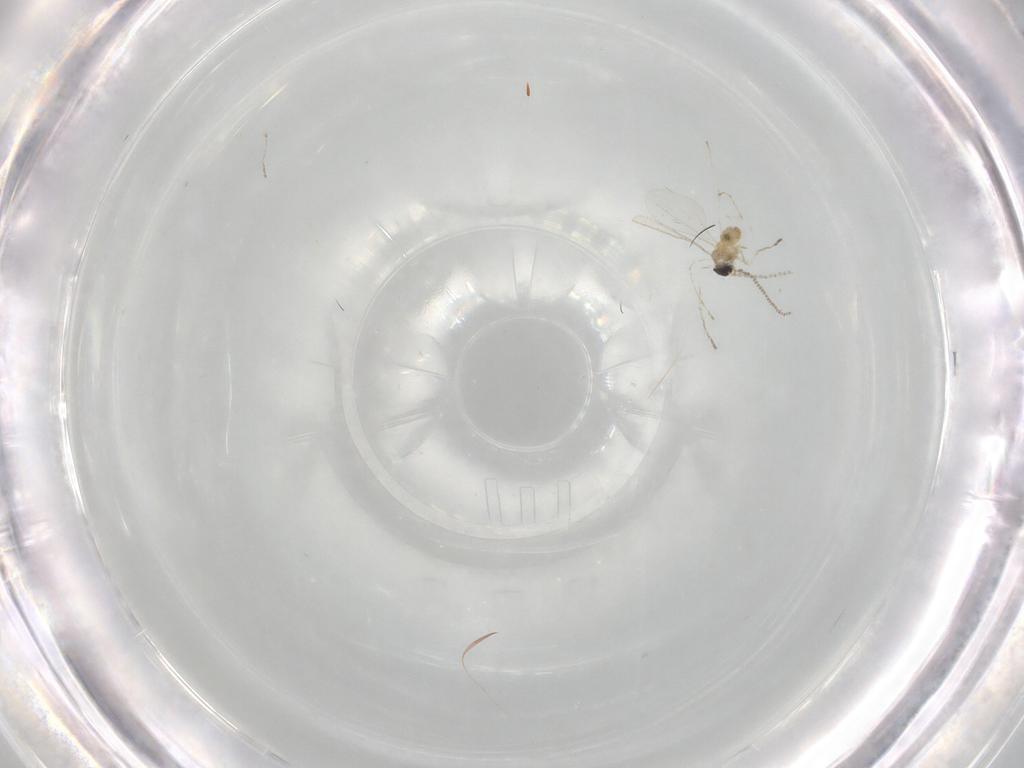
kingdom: Animalia
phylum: Arthropoda
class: Insecta
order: Diptera
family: Cecidomyiidae
